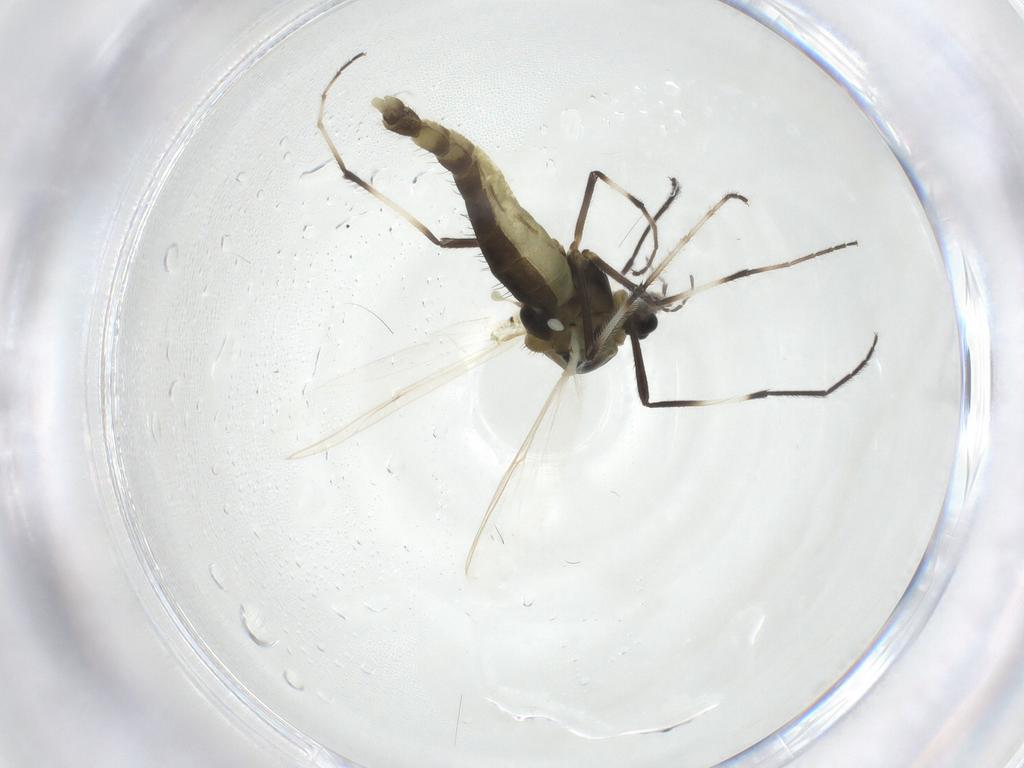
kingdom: Animalia
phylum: Arthropoda
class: Insecta
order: Diptera
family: Chironomidae
